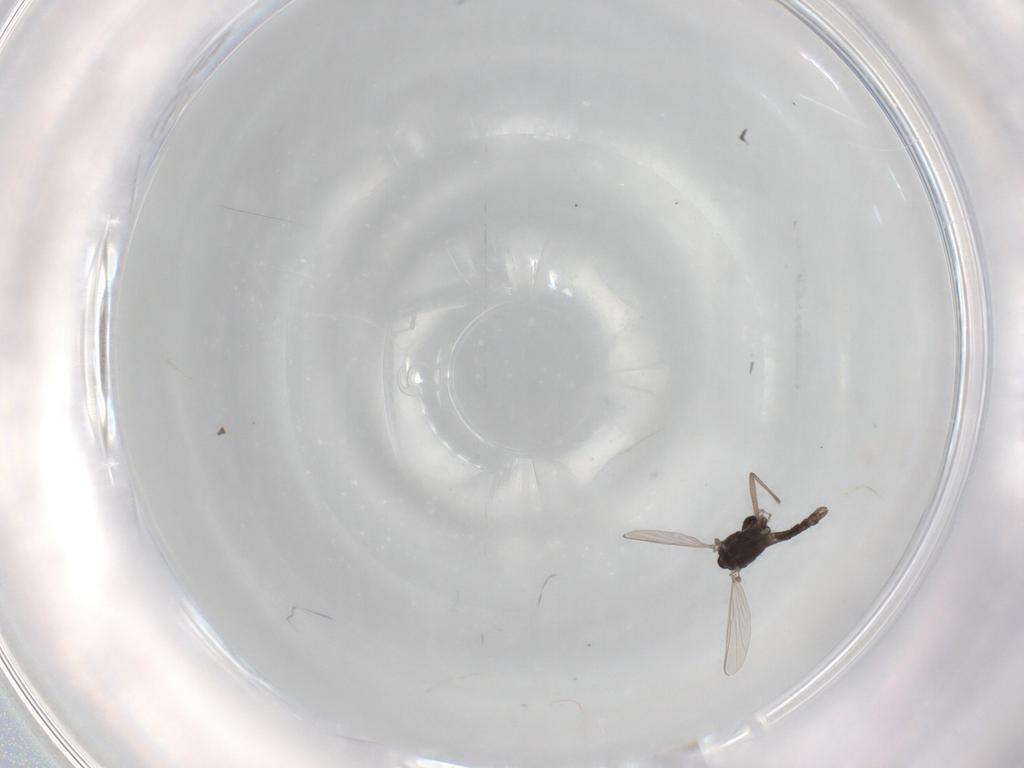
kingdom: Animalia
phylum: Arthropoda
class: Insecta
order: Diptera
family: Chironomidae
